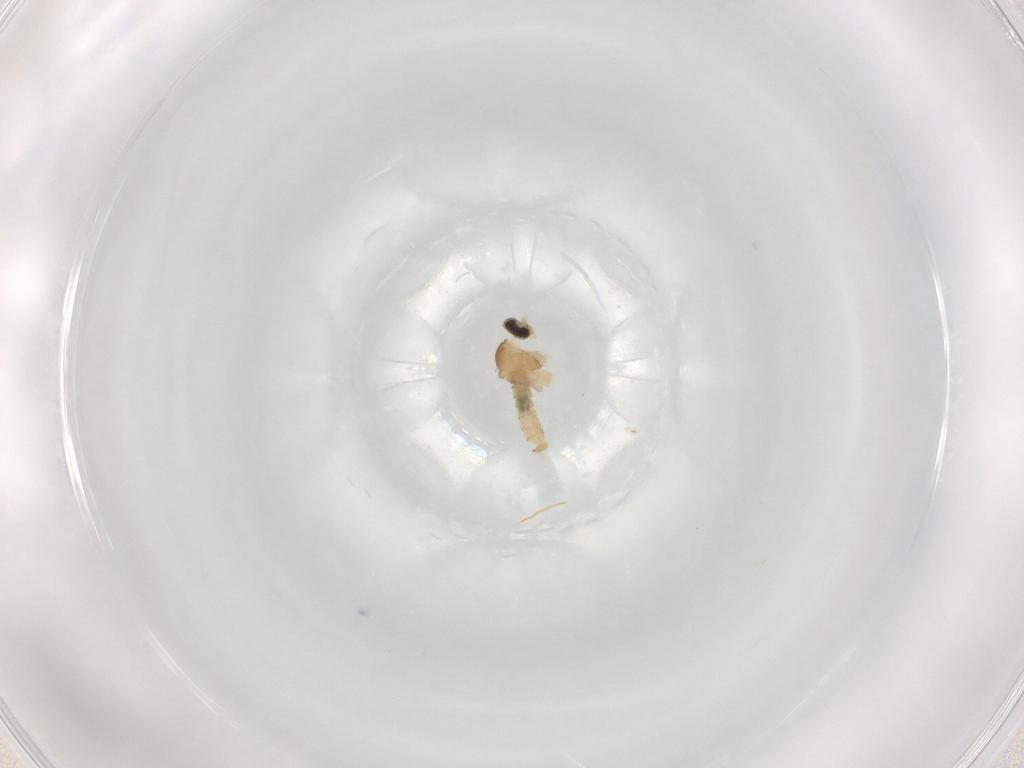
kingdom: Animalia
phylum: Arthropoda
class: Insecta
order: Diptera
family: Cecidomyiidae
